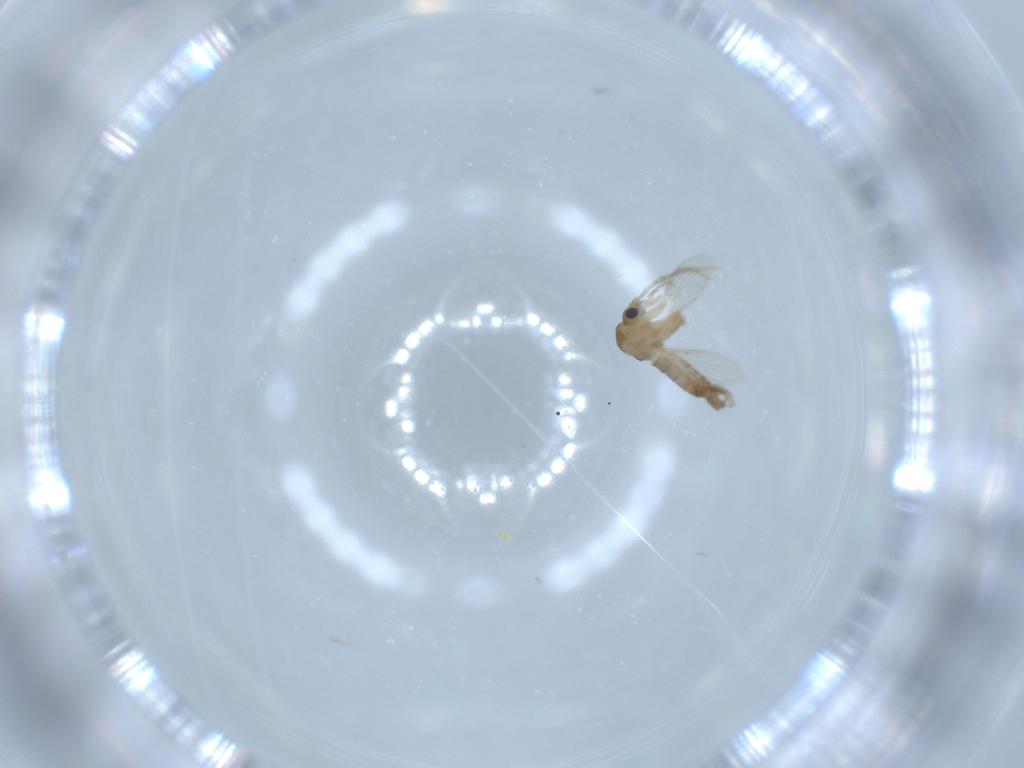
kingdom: Animalia
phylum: Arthropoda
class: Insecta
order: Diptera
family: Psychodidae
